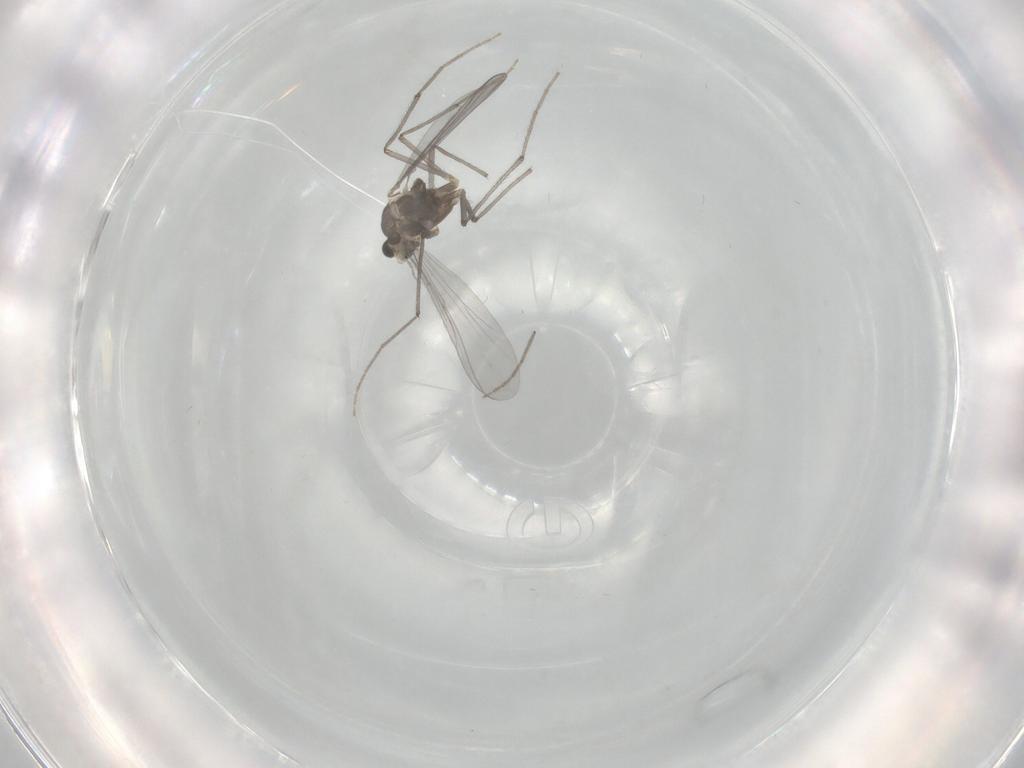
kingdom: Animalia
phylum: Arthropoda
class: Insecta
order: Diptera
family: Chironomidae
